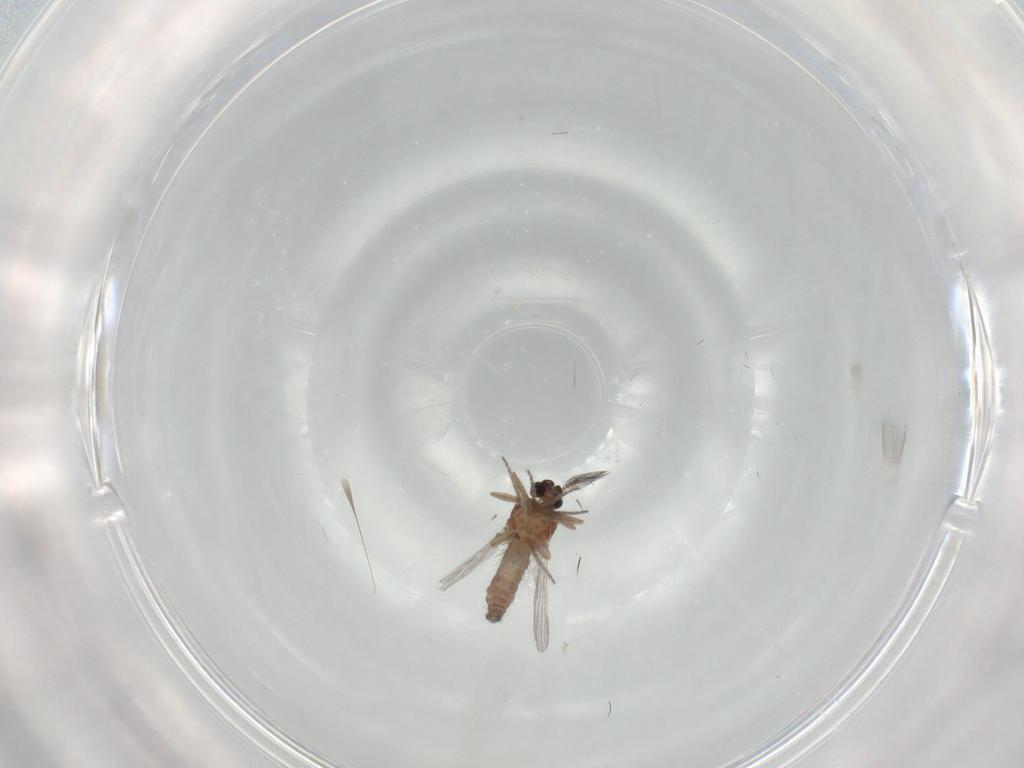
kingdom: Animalia
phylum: Arthropoda
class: Insecta
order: Diptera
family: Ceratopogonidae
